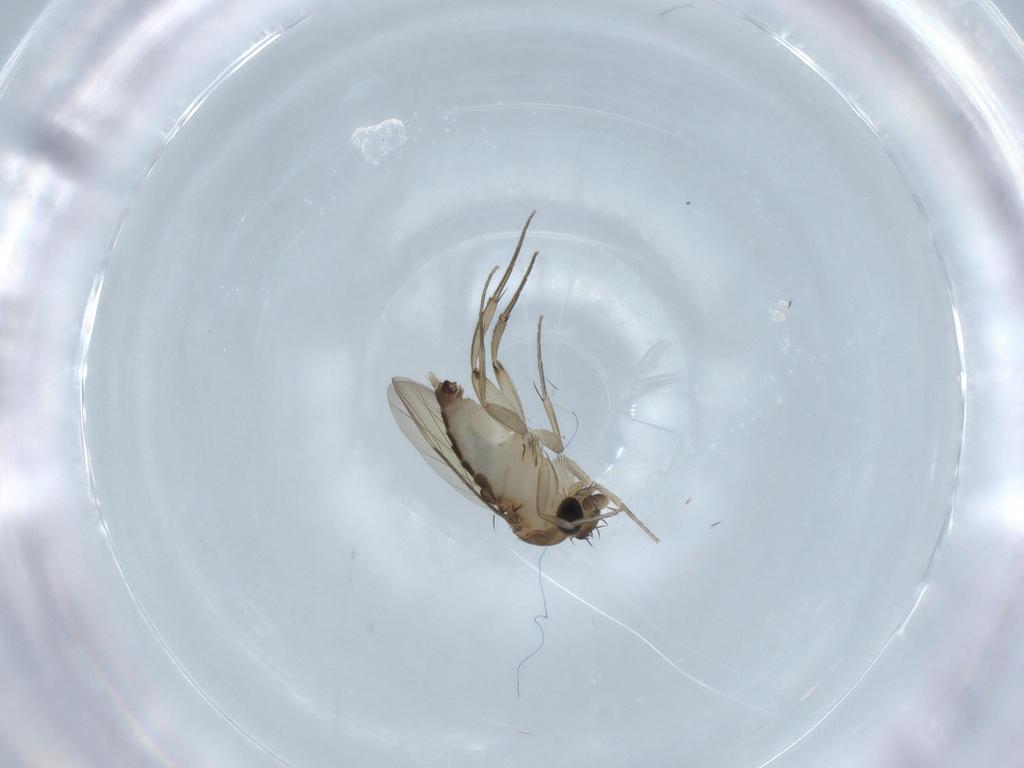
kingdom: Animalia
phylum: Arthropoda
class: Insecta
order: Diptera
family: Phoridae
